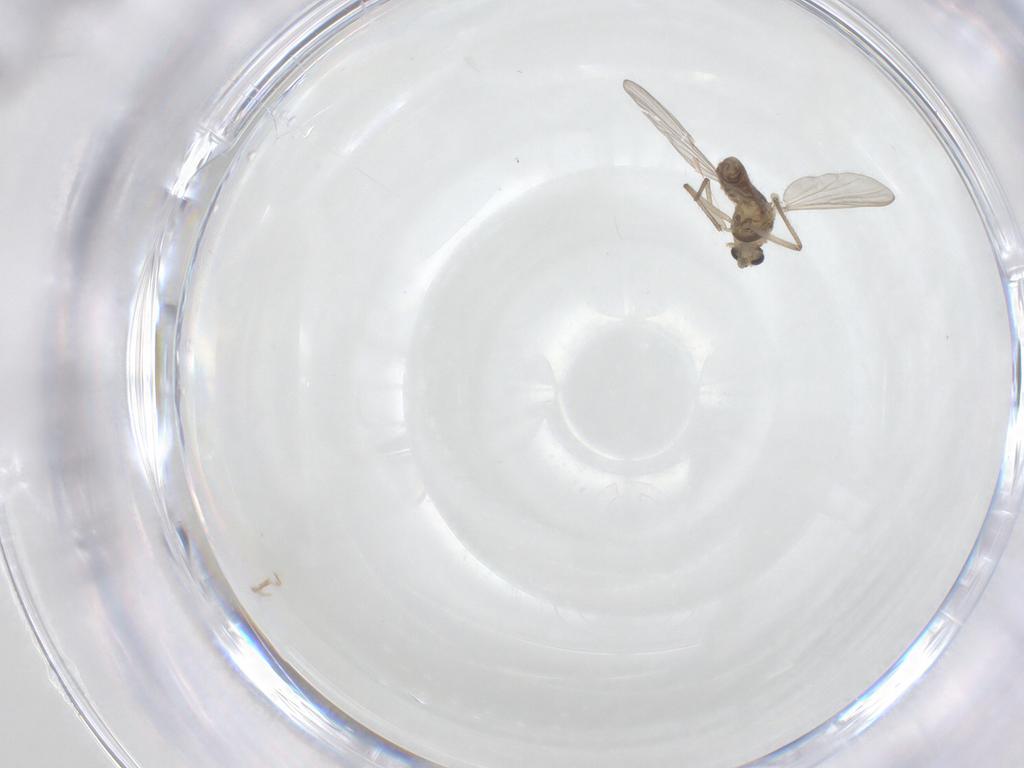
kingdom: Animalia
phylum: Arthropoda
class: Insecta
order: Diptera
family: Chironomidae
